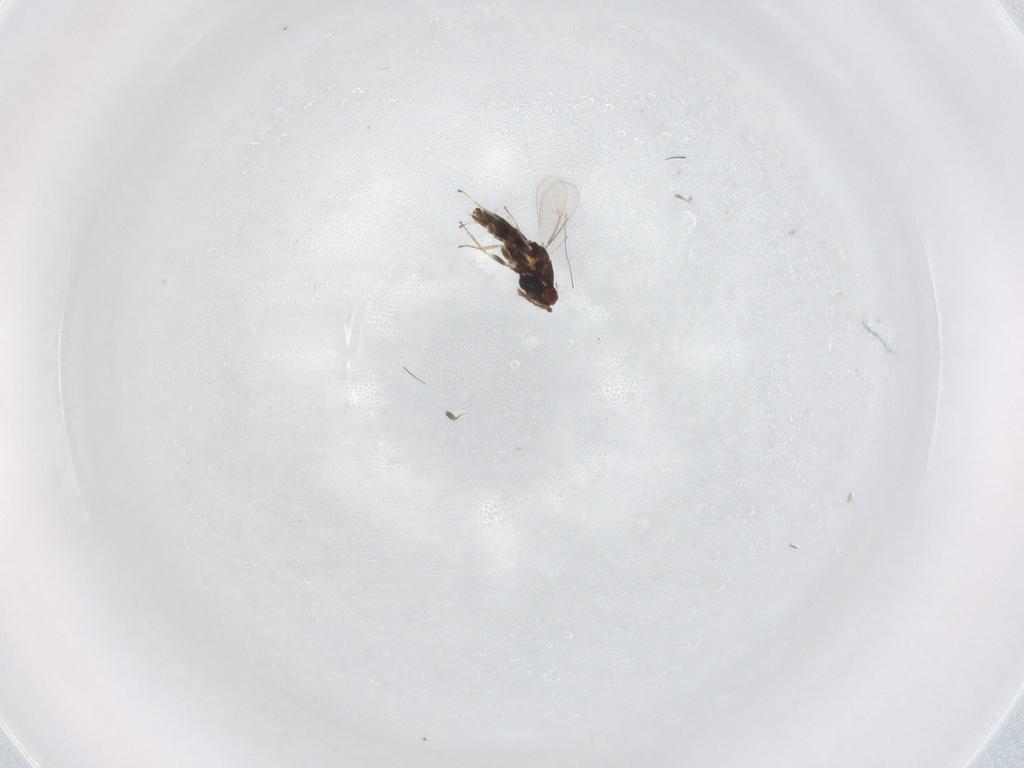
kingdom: Animalia
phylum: Arthropoda
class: Insecta
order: Hymenoptera
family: Eulophidae
